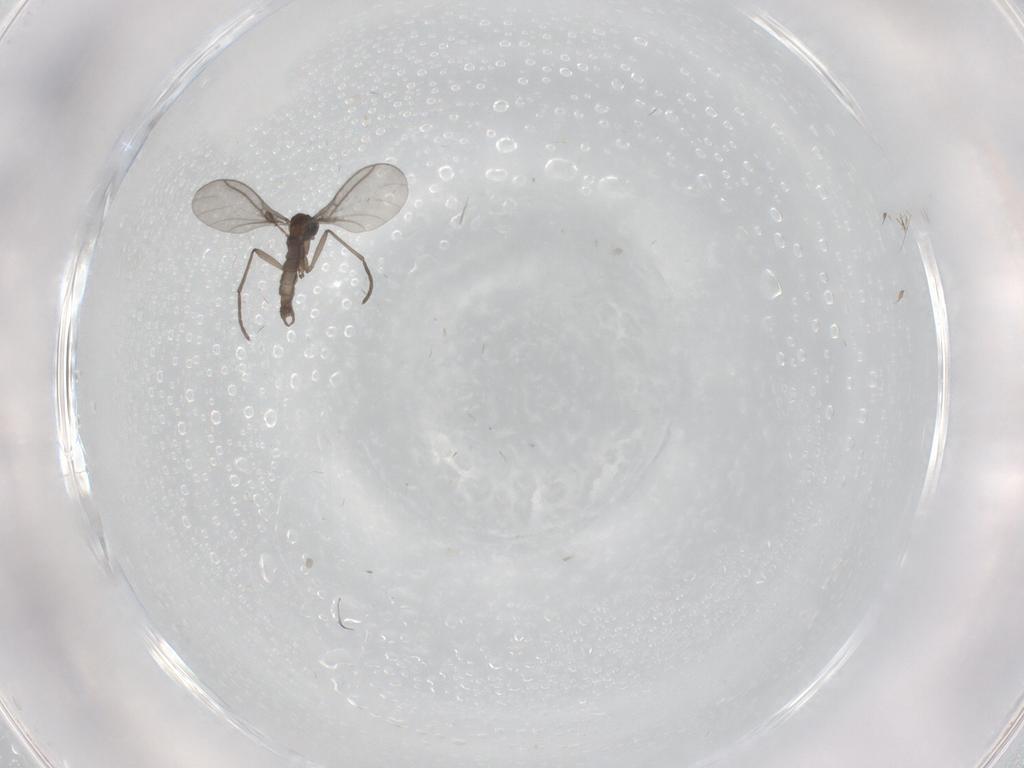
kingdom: Animalia
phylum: Arthropoda
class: Insecta
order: Diptera
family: Sciaridae
